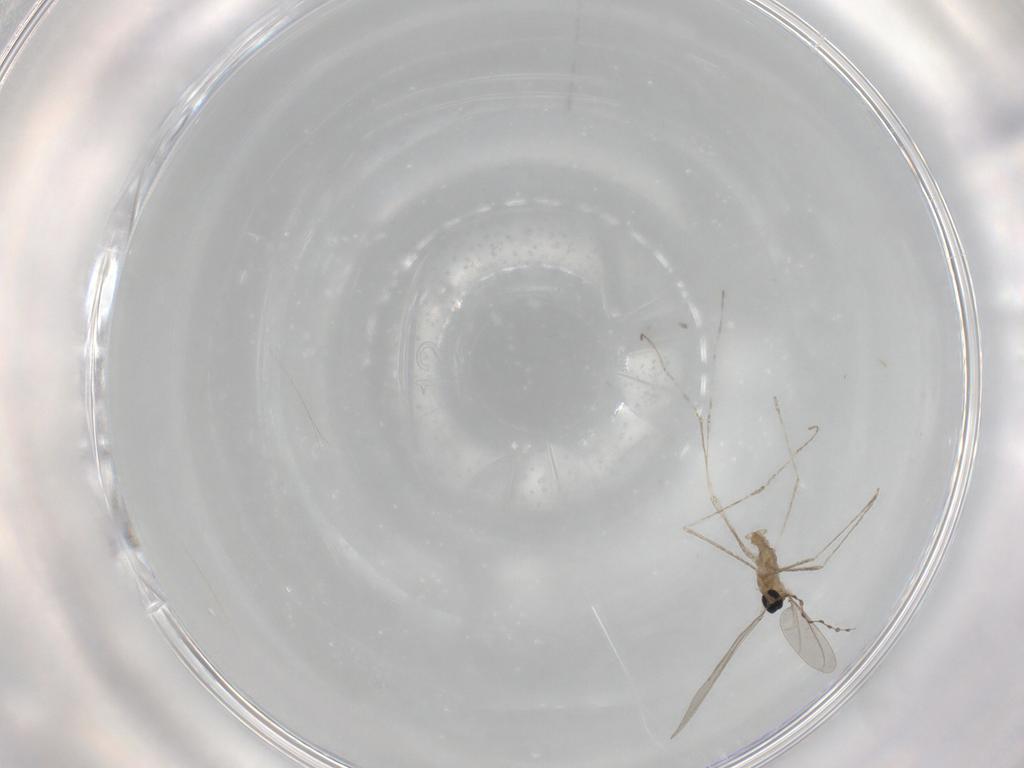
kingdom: Animalia
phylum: Arthropoda
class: Insecta
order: Diptera
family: Cecidomyiidae
